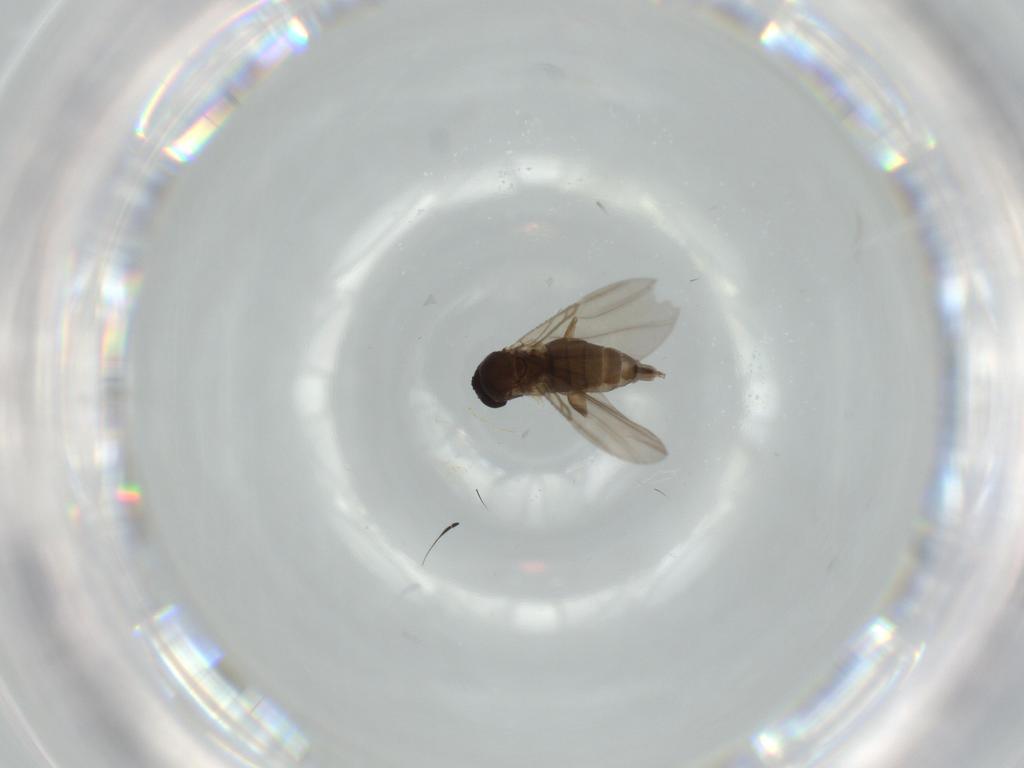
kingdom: Animalia
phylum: Arthropoda
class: Insecta
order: Diptera
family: Phoridae
